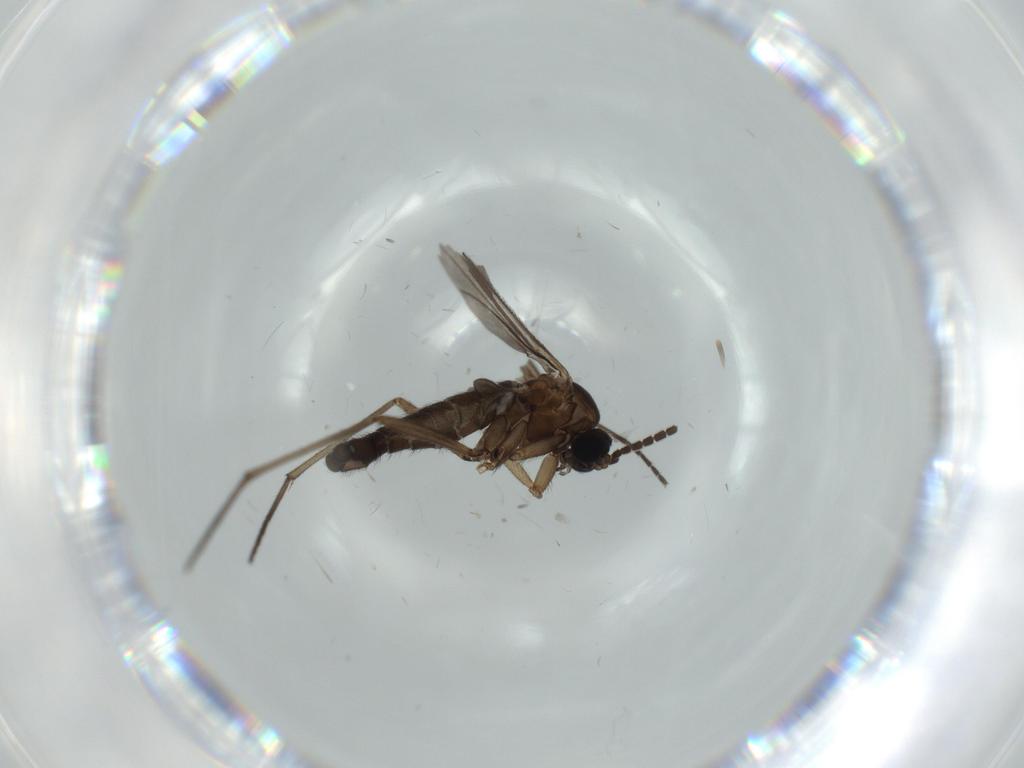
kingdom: Animalia
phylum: Arthropoda
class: Insecta
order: Diptera
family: Sciaridae
